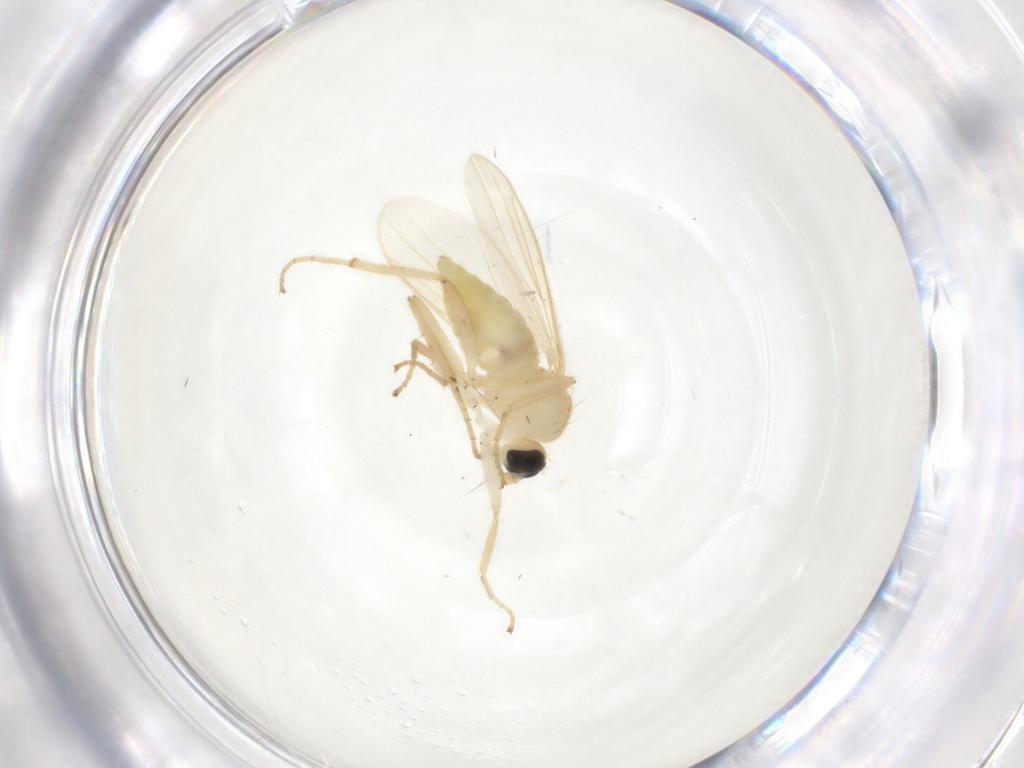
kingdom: Animalia
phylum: Arthropoda
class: Insecta
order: Diptera
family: Hybotidae
